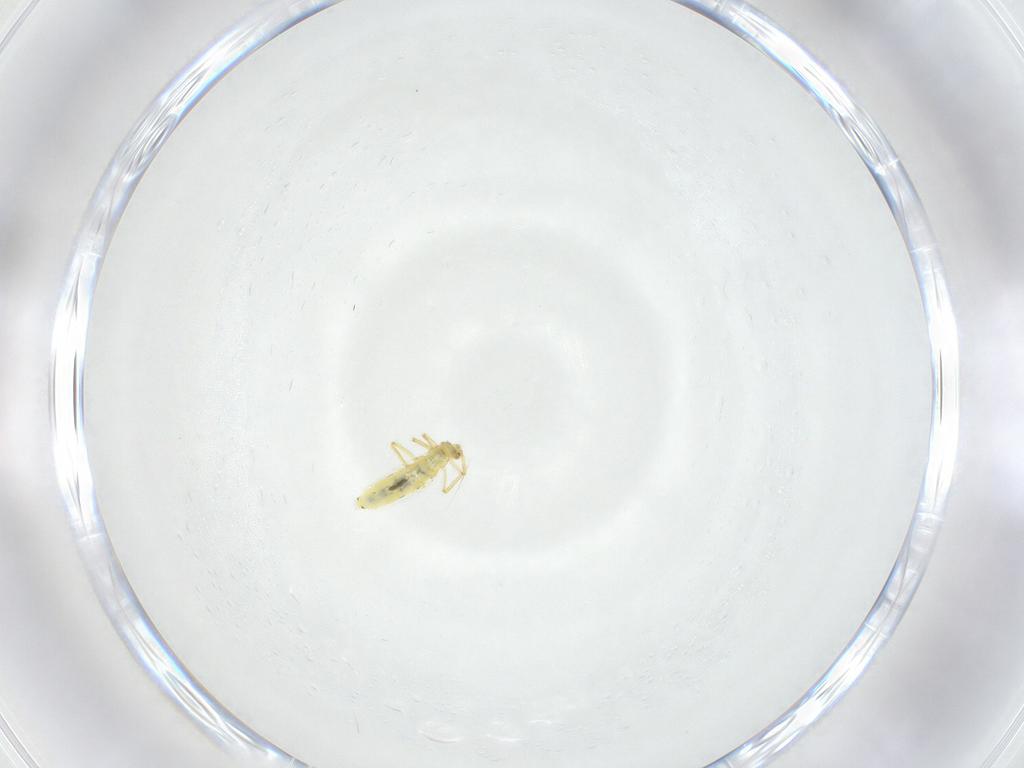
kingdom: Animalia
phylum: Arthropoda
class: Collembola
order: Entomobryomorpha
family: Entomobryidae
